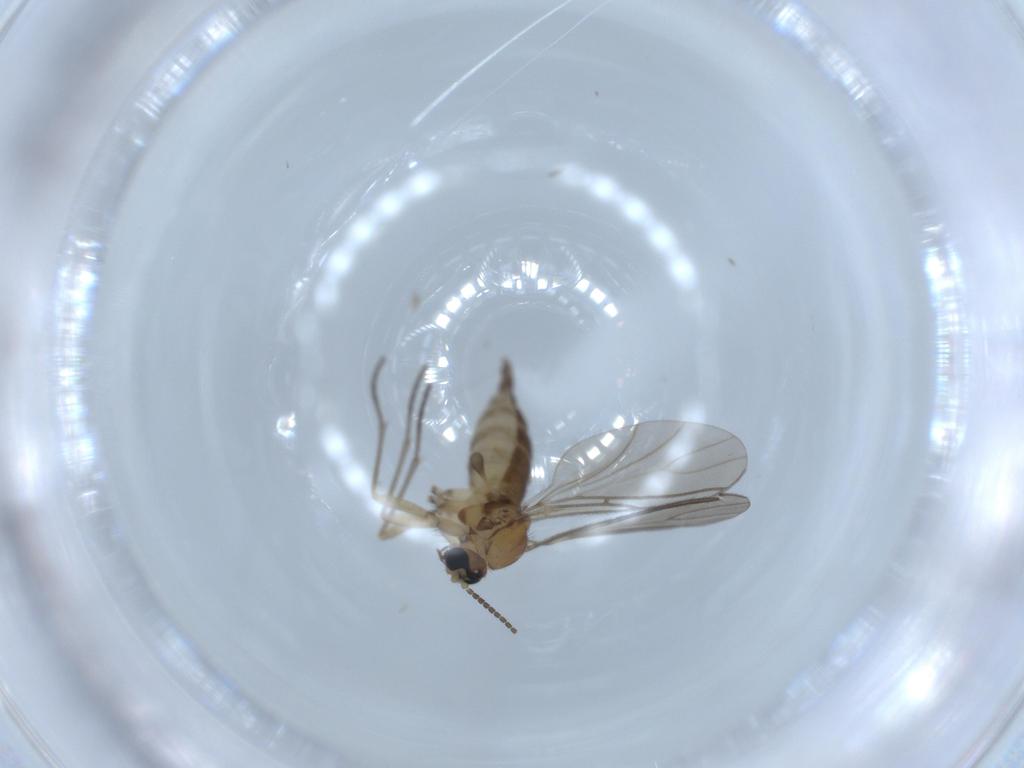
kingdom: Animalia
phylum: Arthropoda
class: Insecta
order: Diptera
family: Sciaridae
